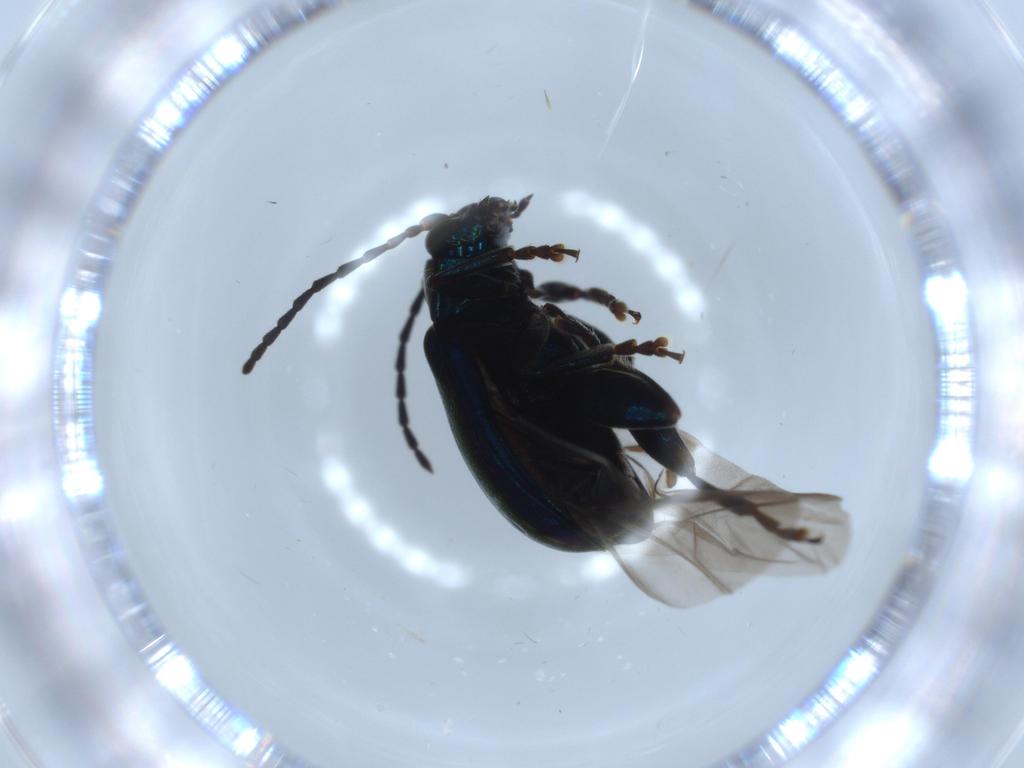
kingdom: Animalia
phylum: Arthropoda
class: Insecta
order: Coleoptera
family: Chrysomelidae
